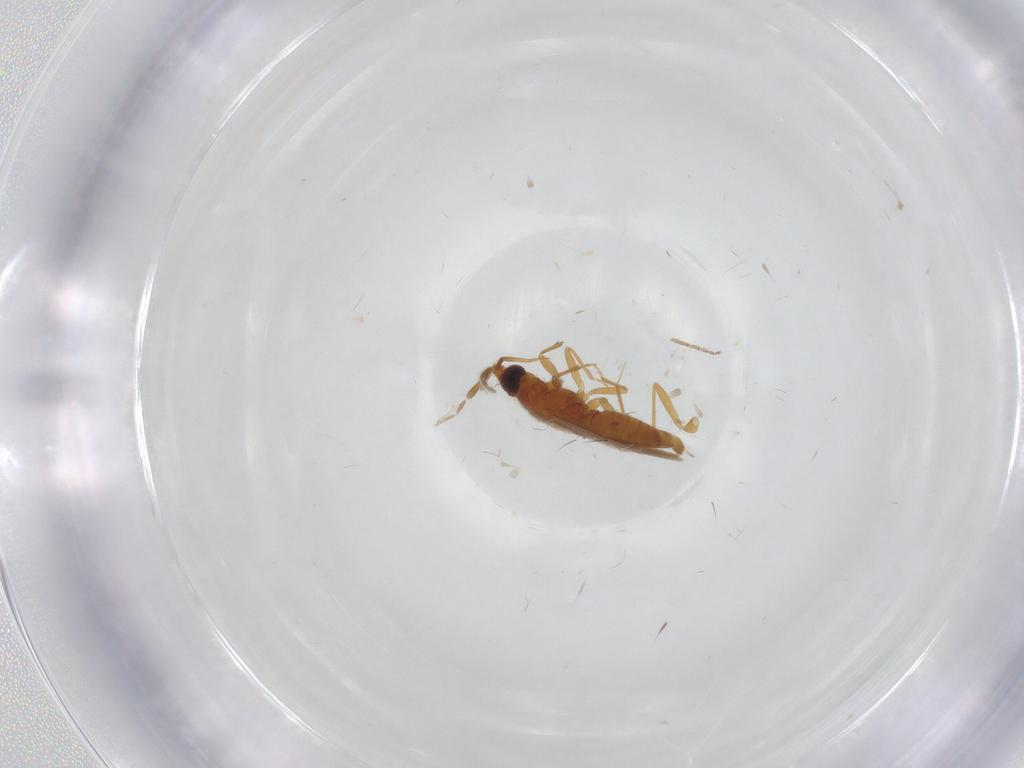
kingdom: Animalia
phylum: Arthropoda
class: Insecta
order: Hemiptera
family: Anthocoridae
